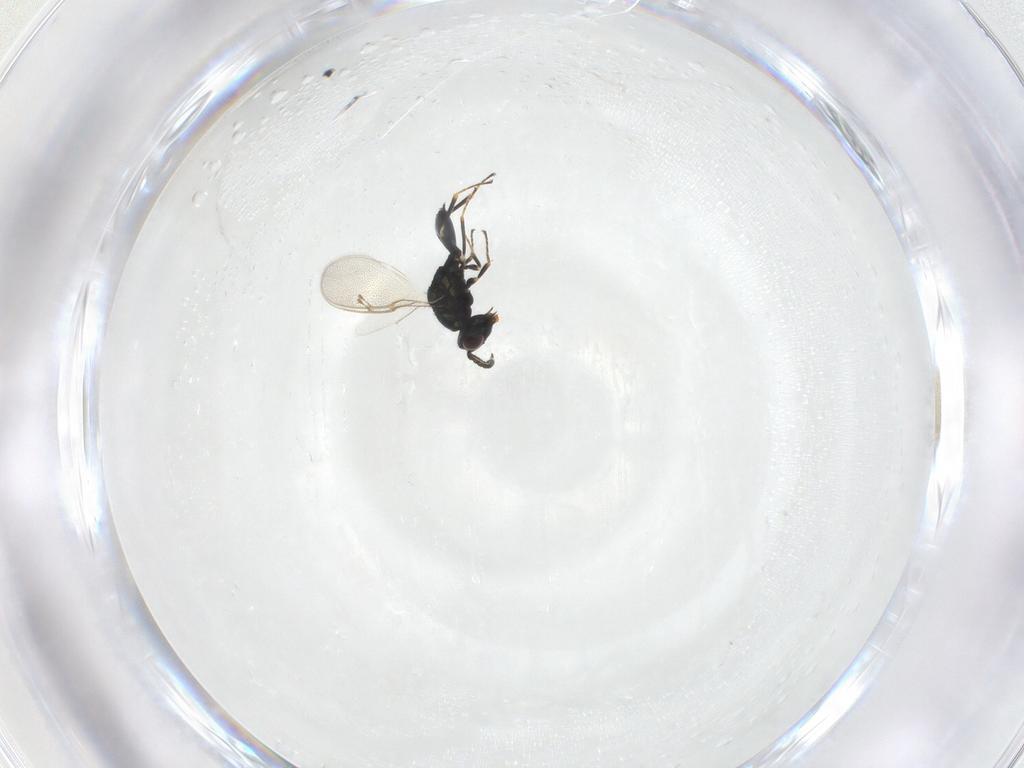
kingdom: Animalia
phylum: Arthropoda
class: Insecta
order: Hymenoptera
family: Pteromalidae
